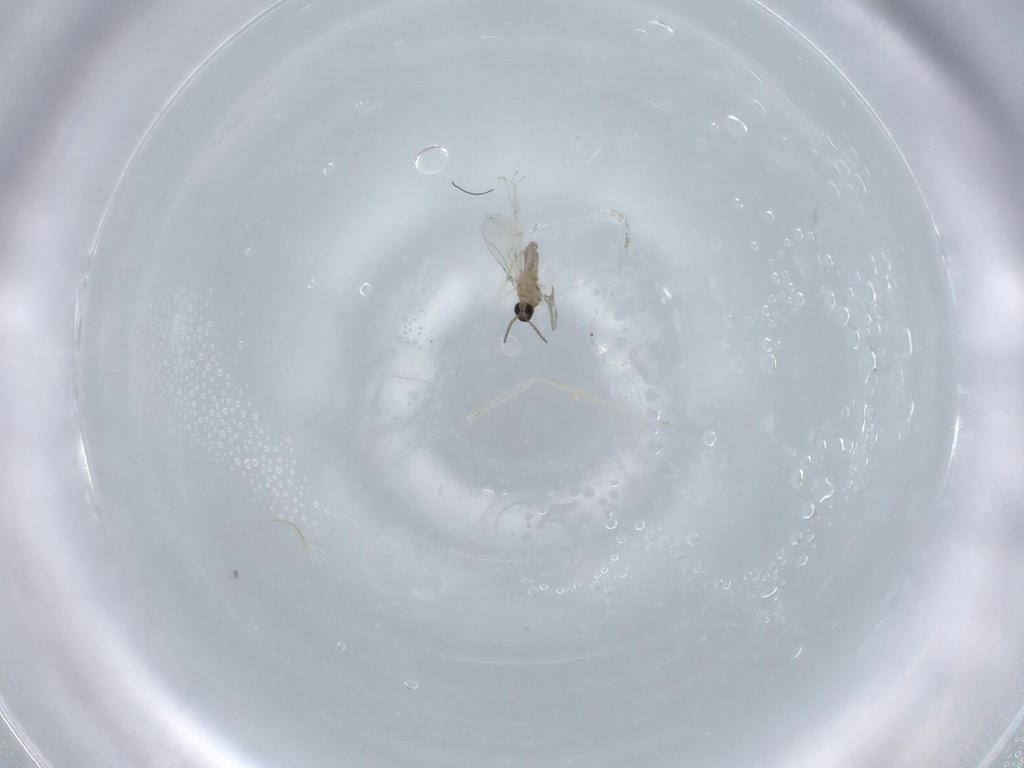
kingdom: Animalia
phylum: Arthropoda
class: Insecta
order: Diptera
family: Cecidomyiidae
